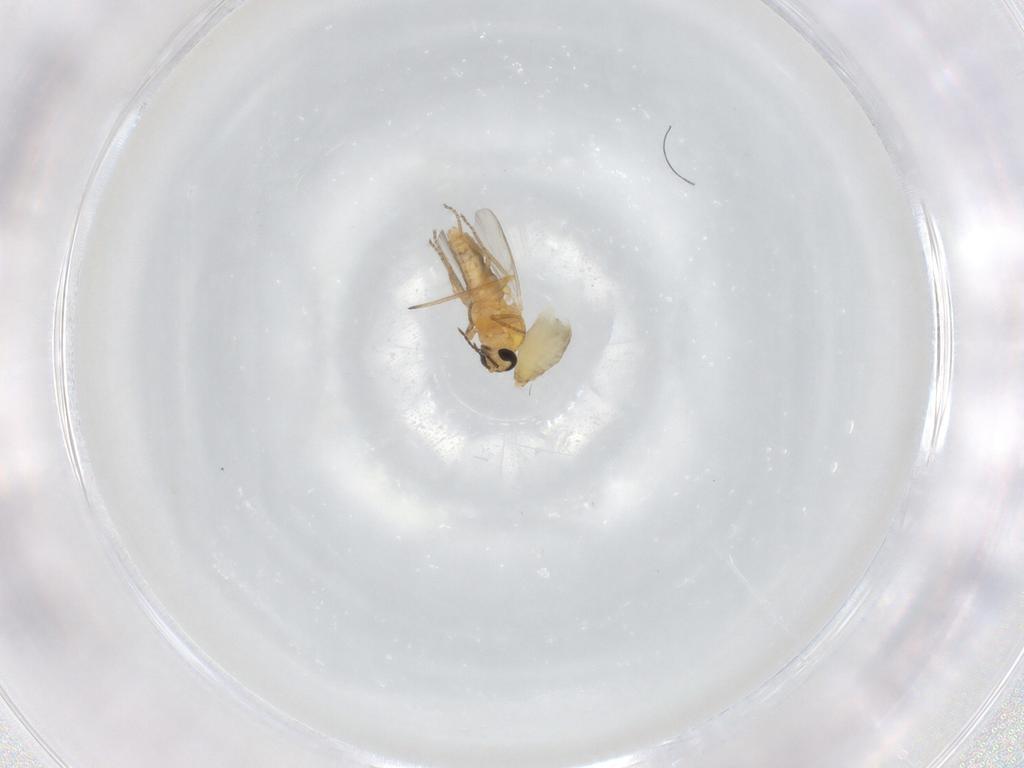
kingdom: Animalia
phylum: Arthropoda
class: Insecta
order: Diptera
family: Chironomidae
